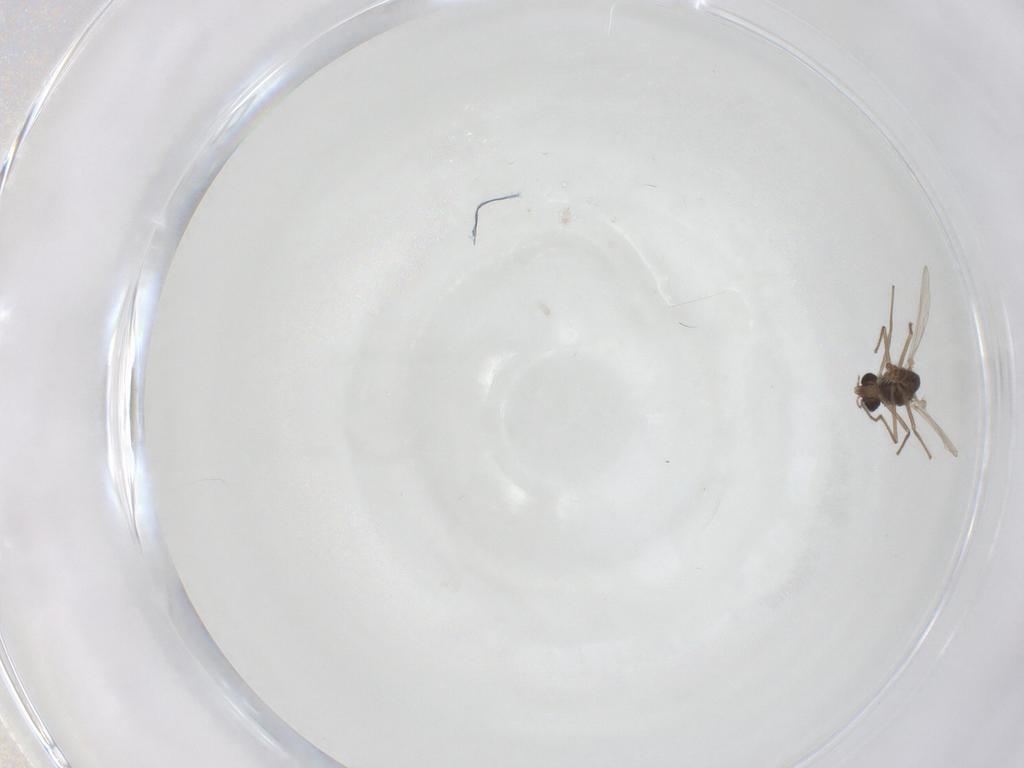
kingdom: Animalia
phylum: Arthropoda
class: Insecta
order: Diptera
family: Chironomidae
